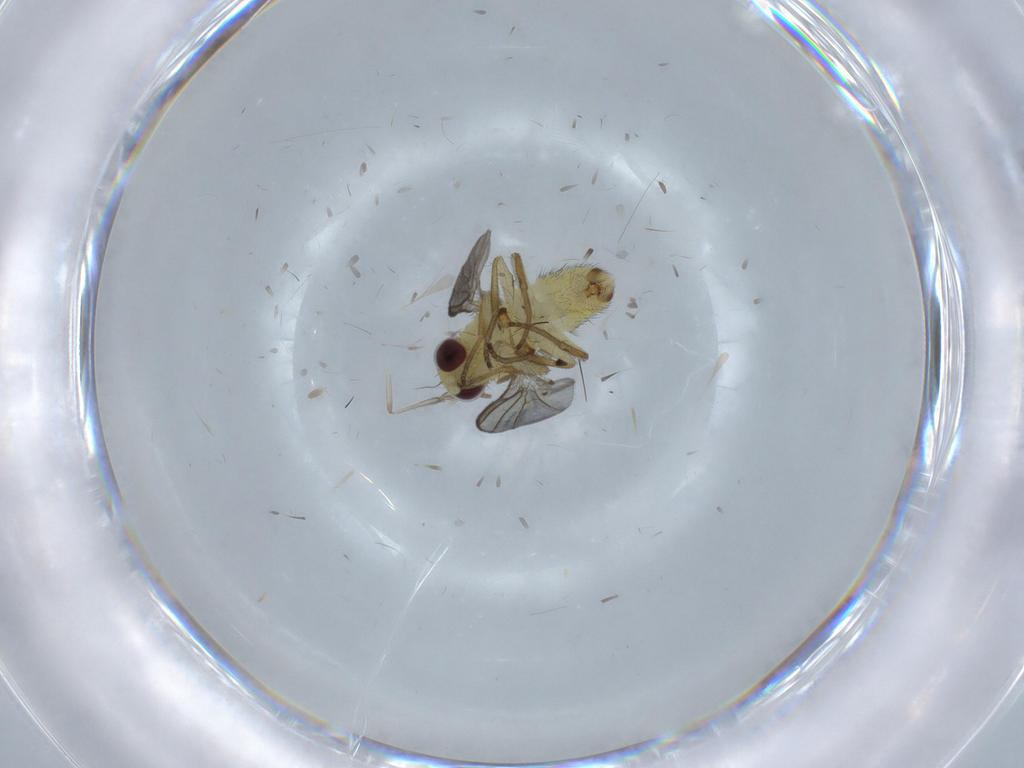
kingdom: Animalia
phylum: Arthropoda
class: Insecta
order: Diptera
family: Agromyzidae
